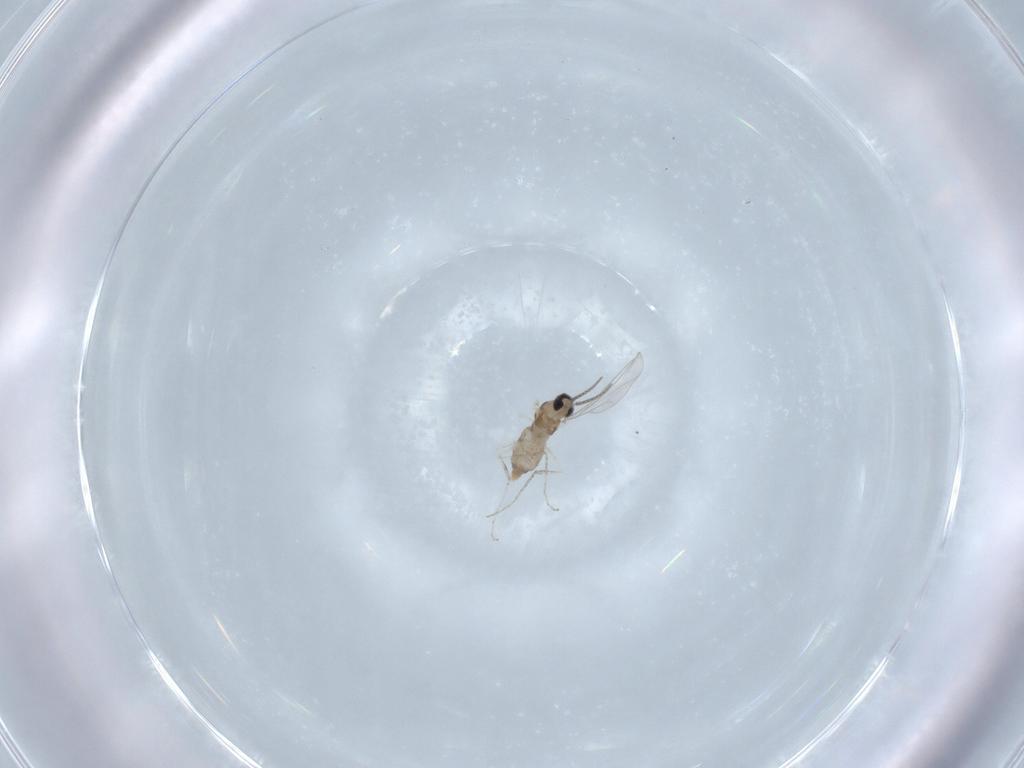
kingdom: Animalia
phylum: Arthropoda
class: Insecta
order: Diptera
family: Cecidomyiidae
